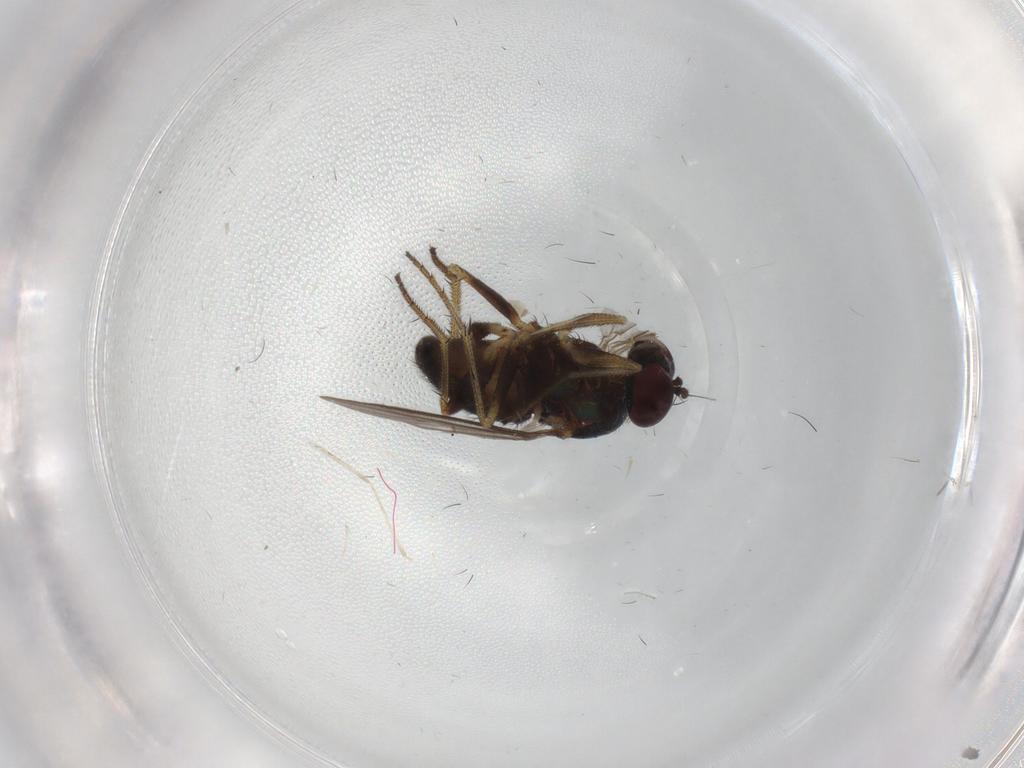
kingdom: Animalia
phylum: Arthropoda
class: Insecta
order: Diptera
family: Chironomidae
